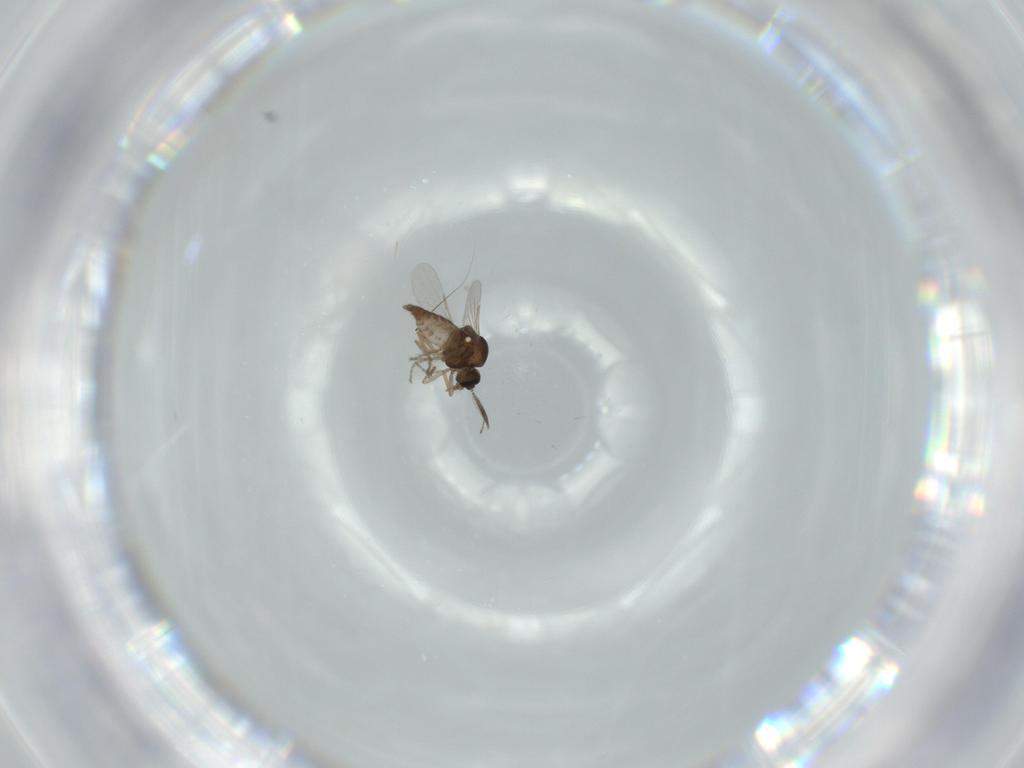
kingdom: Animalia
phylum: Arthropoda
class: Insecta
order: Diptera
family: Ceratopogonidae
